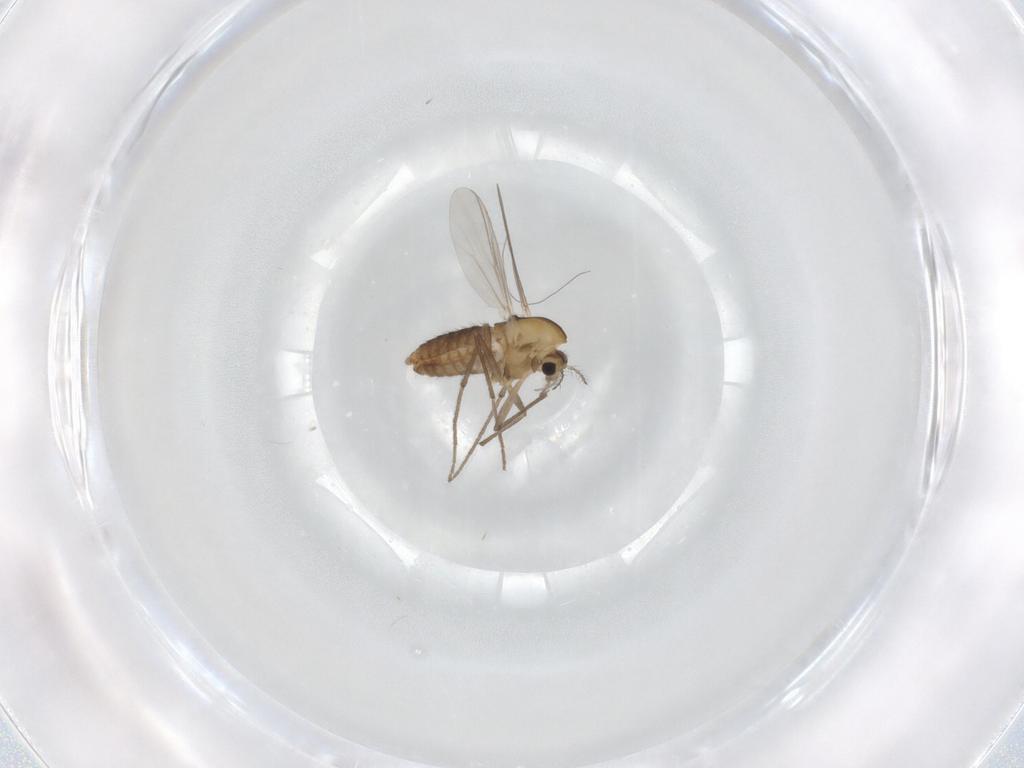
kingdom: Animalia
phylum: Arthropoda
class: Insecta
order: Diptera
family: Chironomidae
